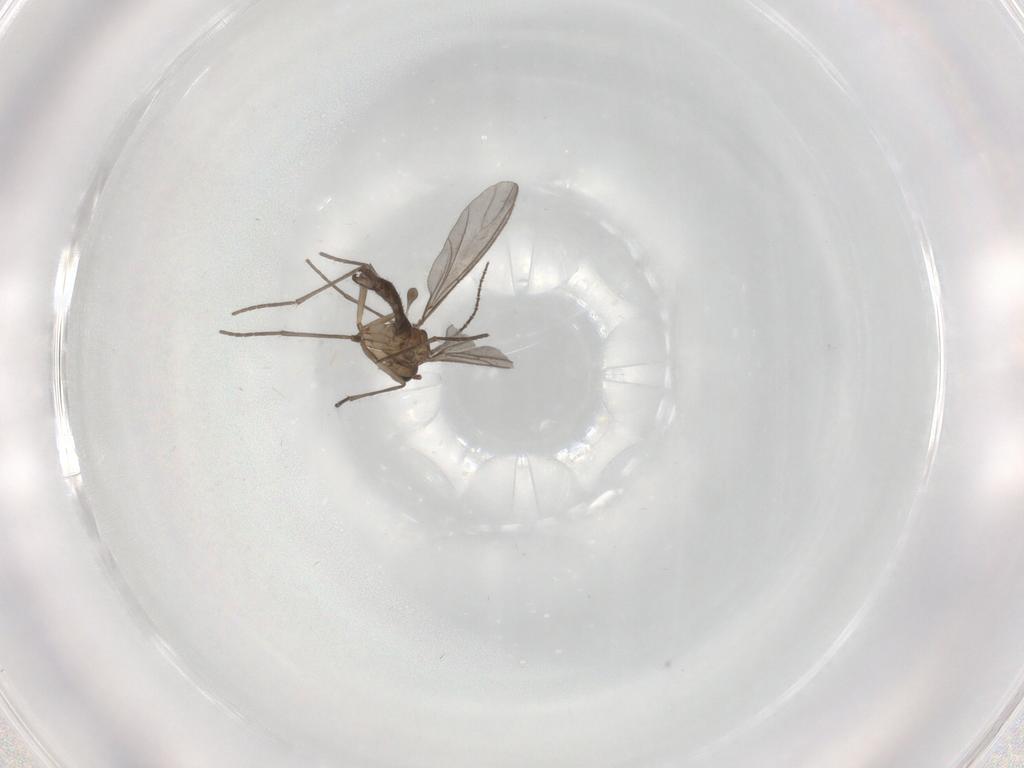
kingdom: Animalia
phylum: Arthropoda
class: Insecta
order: Diptera
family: Sciaridae
